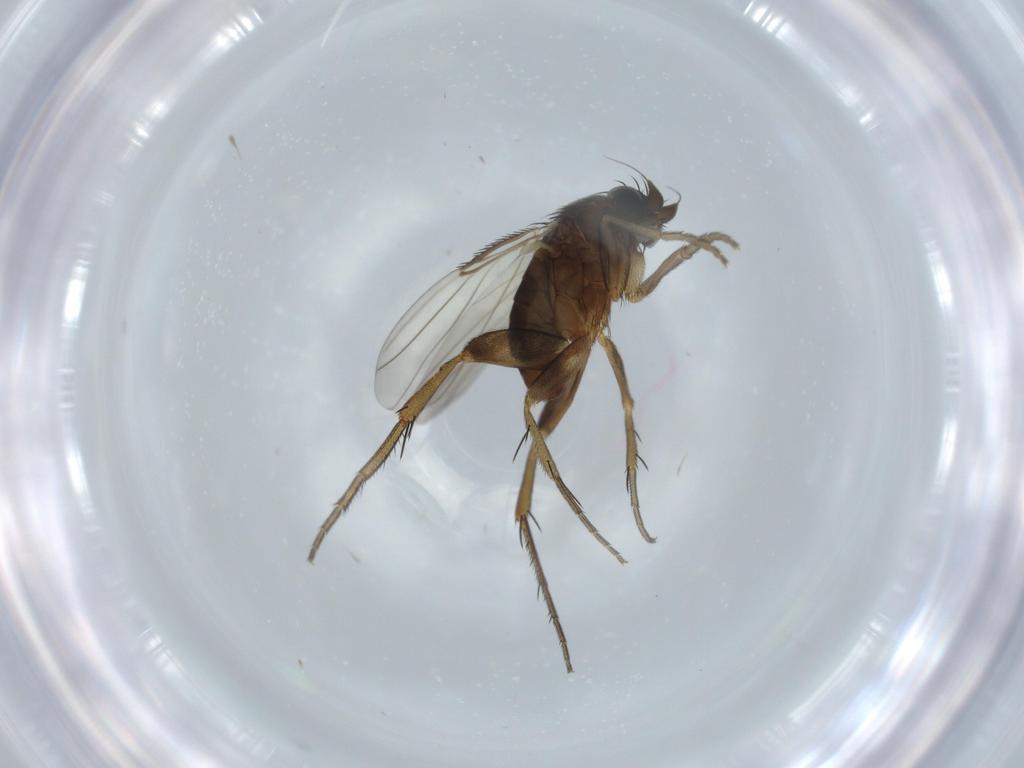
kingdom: Animalia
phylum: Arthropoda
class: Insecta
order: Diptera
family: Phoridae
